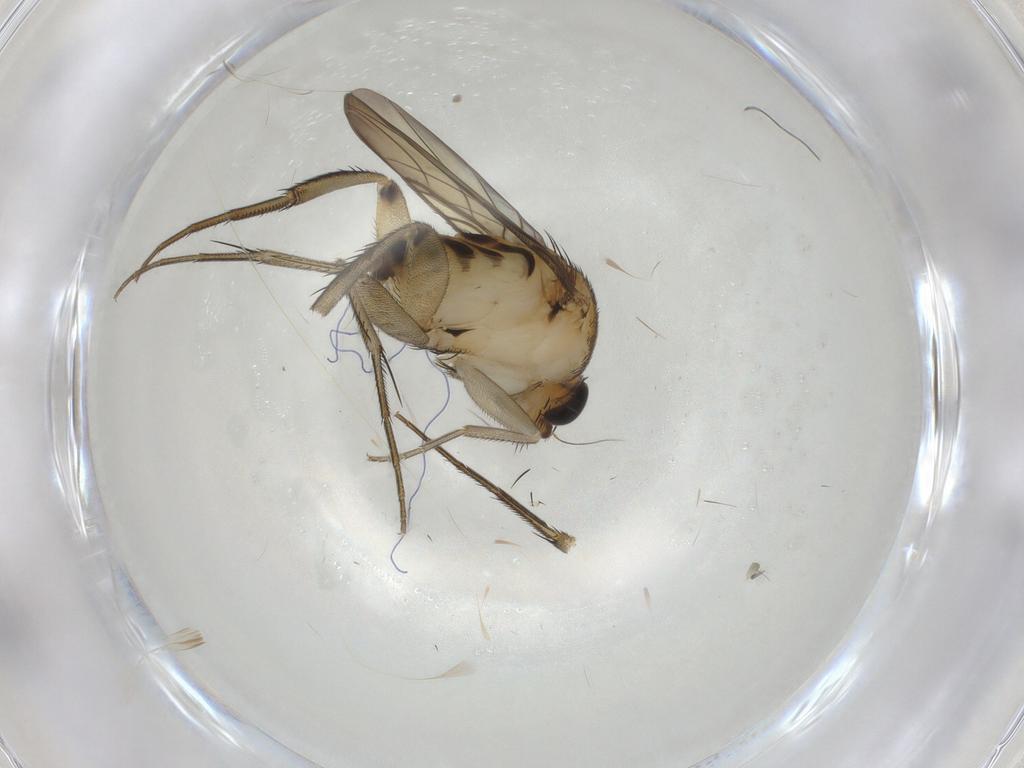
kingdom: Animalia
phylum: Arthropoda
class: Insecta
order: Diptera
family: Phoridae
